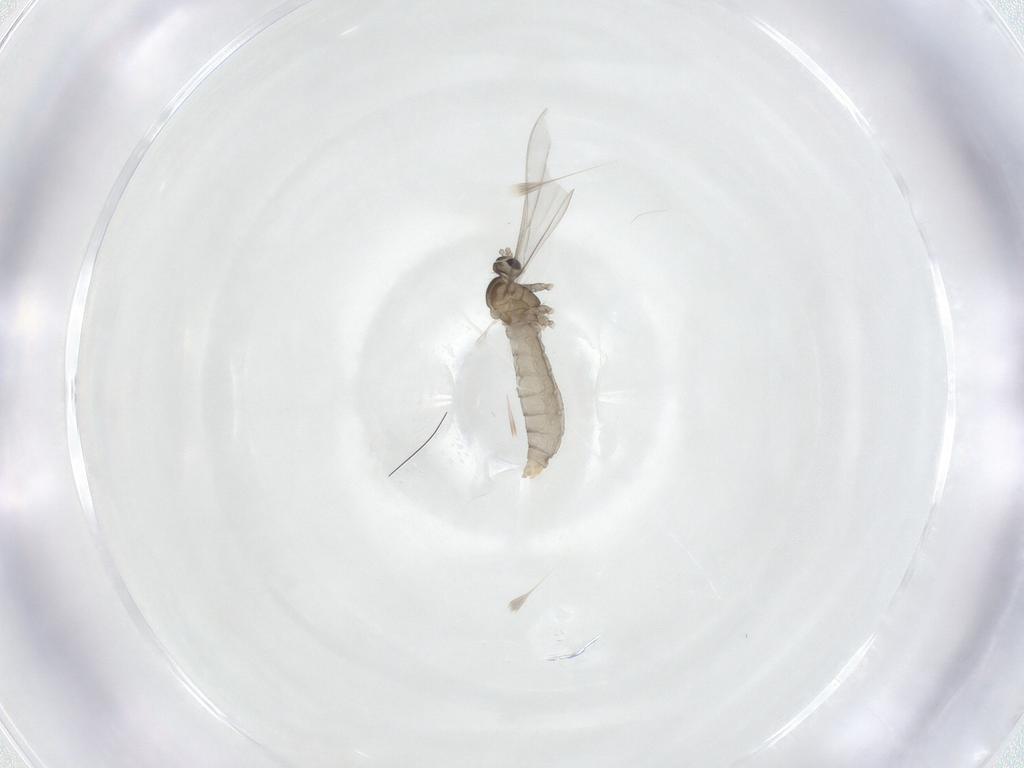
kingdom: Animalia
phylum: Arthropoda
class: Insecta
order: Diptera
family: Cecidomyiidae
